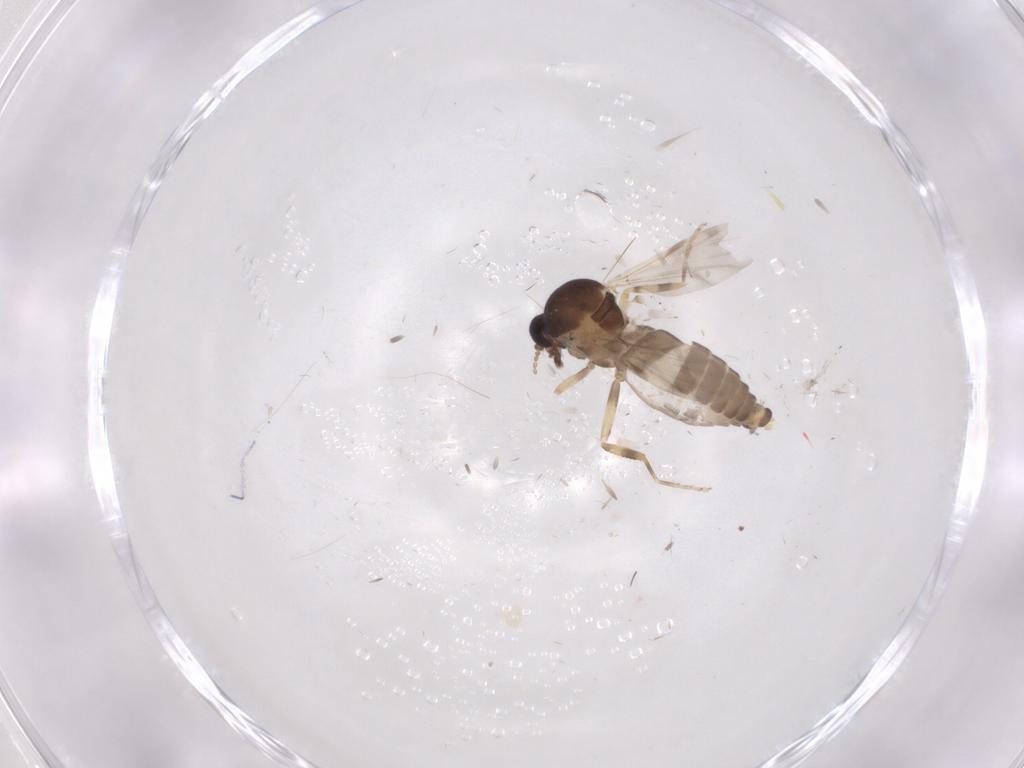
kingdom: Animalia
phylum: Arthropoda
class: Insecta
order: Diptera
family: Ceratopogonidae
